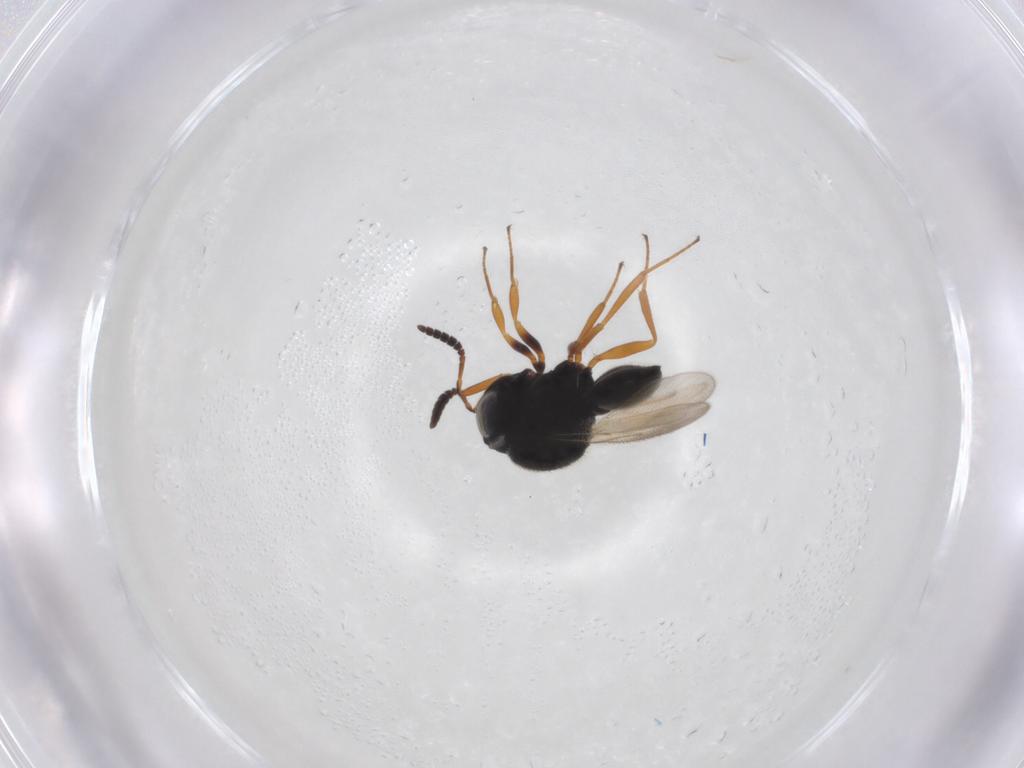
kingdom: Animalia
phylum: Arthropoda
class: Insecta
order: Hymenoptera
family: Scelionidae
